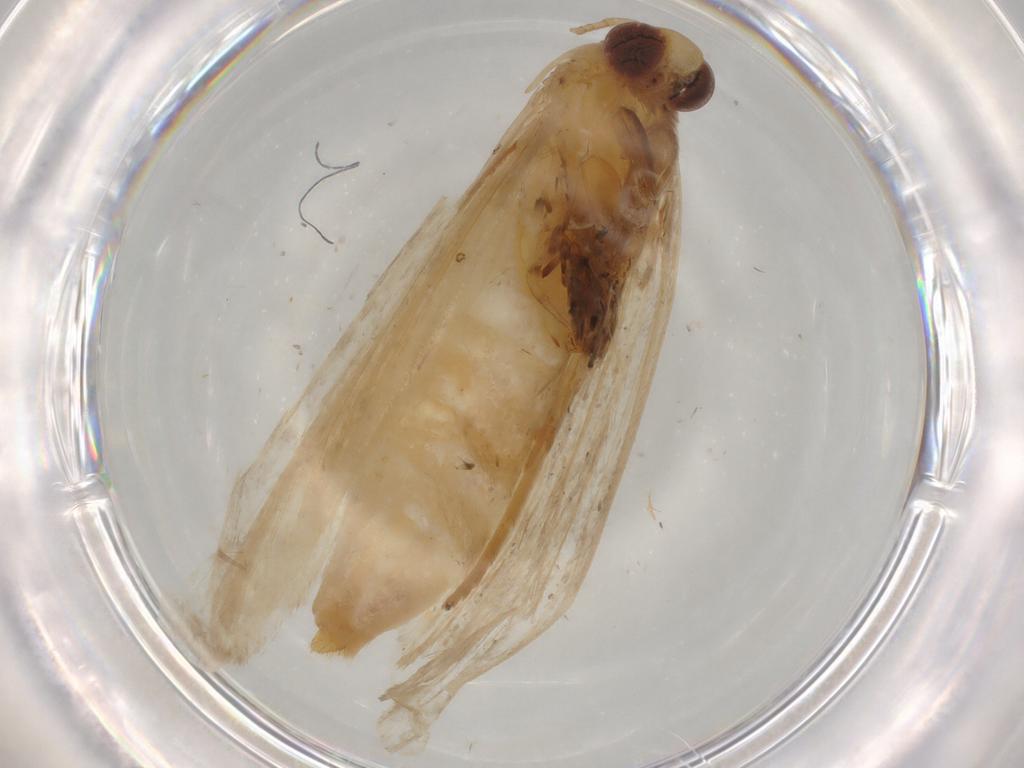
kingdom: Animalia
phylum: Arthropoda
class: Insecta
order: Lepidoptera
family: Pyralidae
